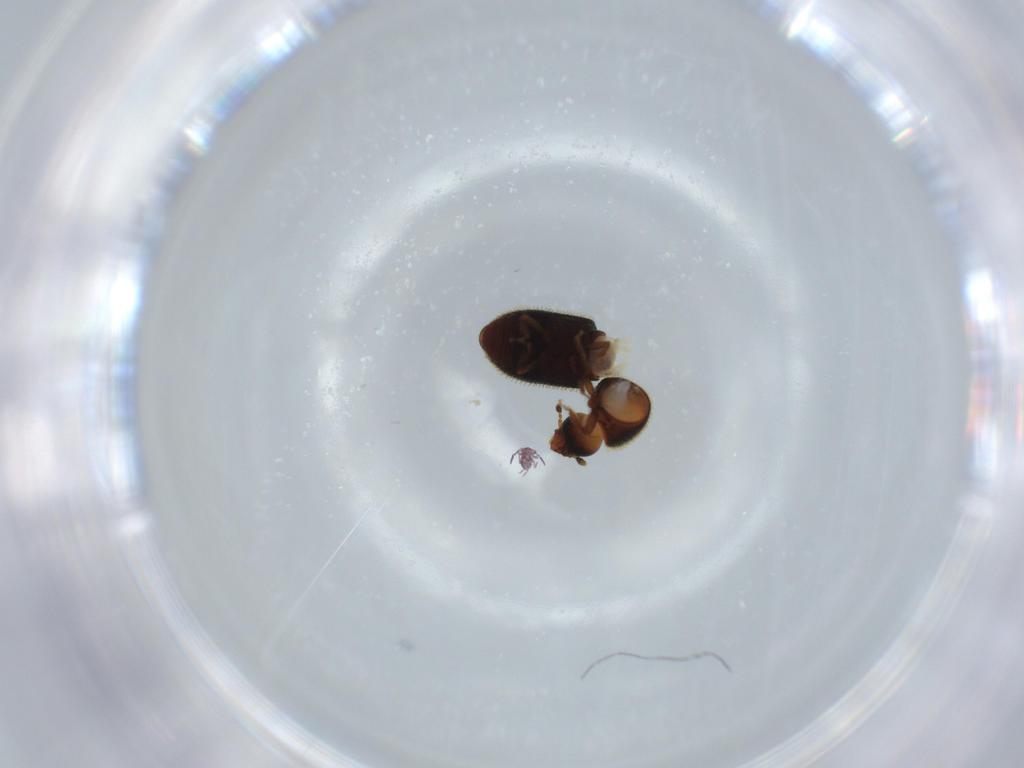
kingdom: Animalia
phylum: Arthropoda
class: Insecta
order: Coleoptera
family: Curculionidae
